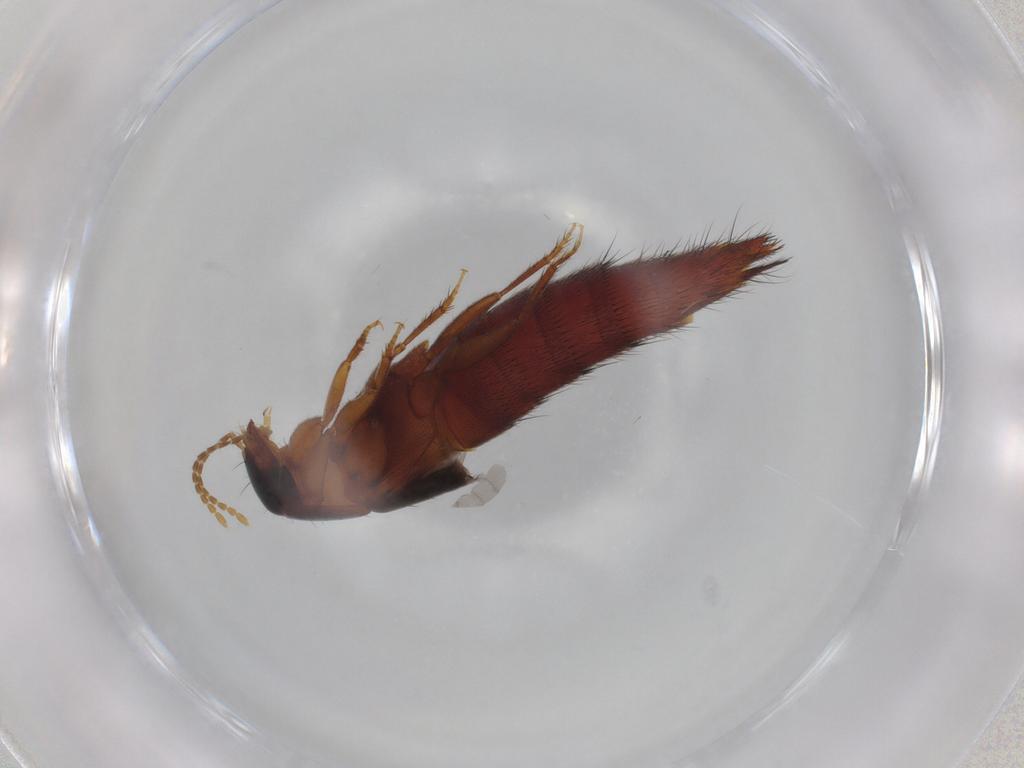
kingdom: Animalia
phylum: Arthropoda
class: Insecta
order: Coleoptera
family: Staphylinidae
